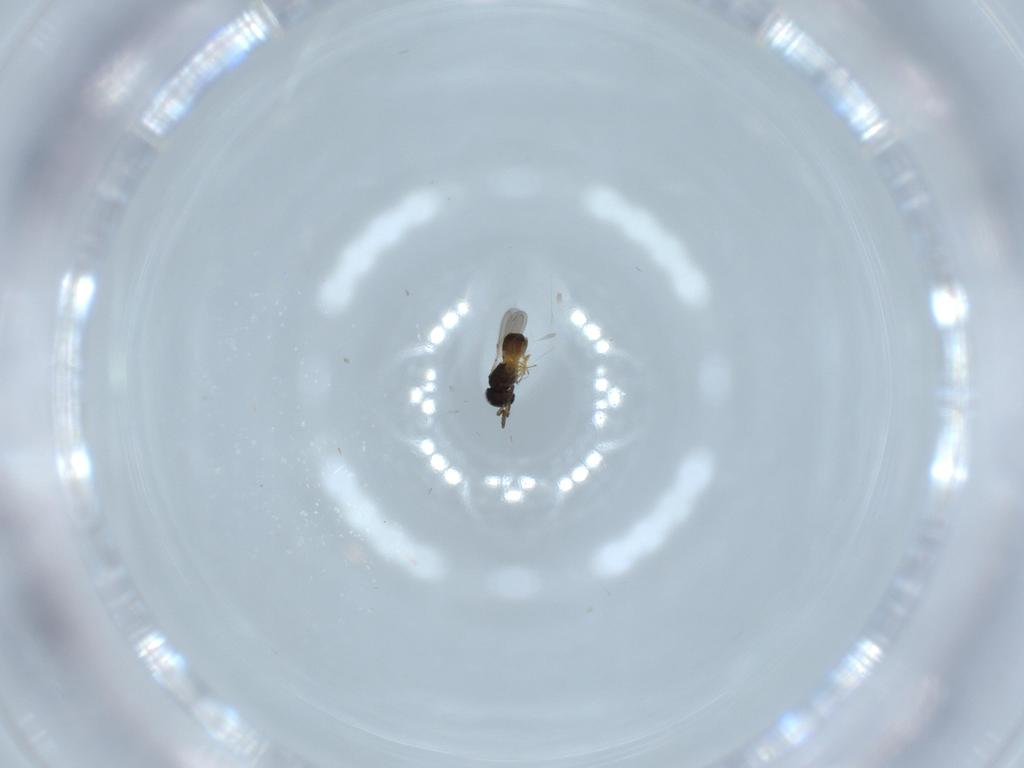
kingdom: Animalia
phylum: Arthropoda
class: Insecta
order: Hymenoptera
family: Scelionidae
